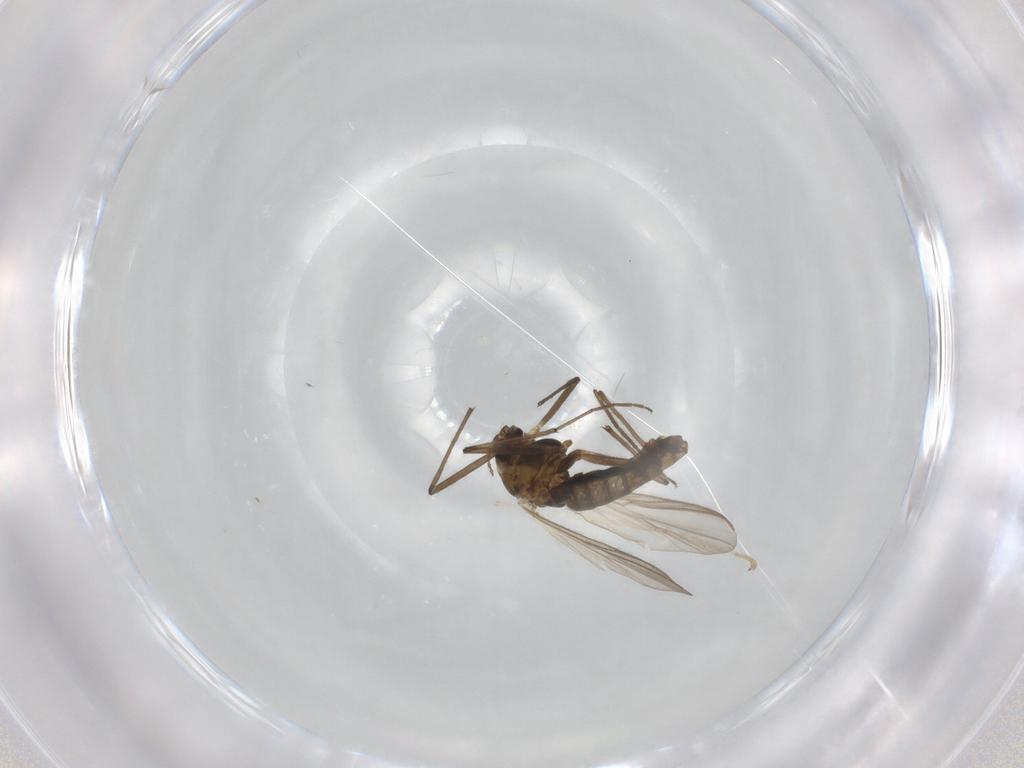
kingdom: Animalia
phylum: Arthropoda
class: Insecta
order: Diptera
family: Chironomidae
